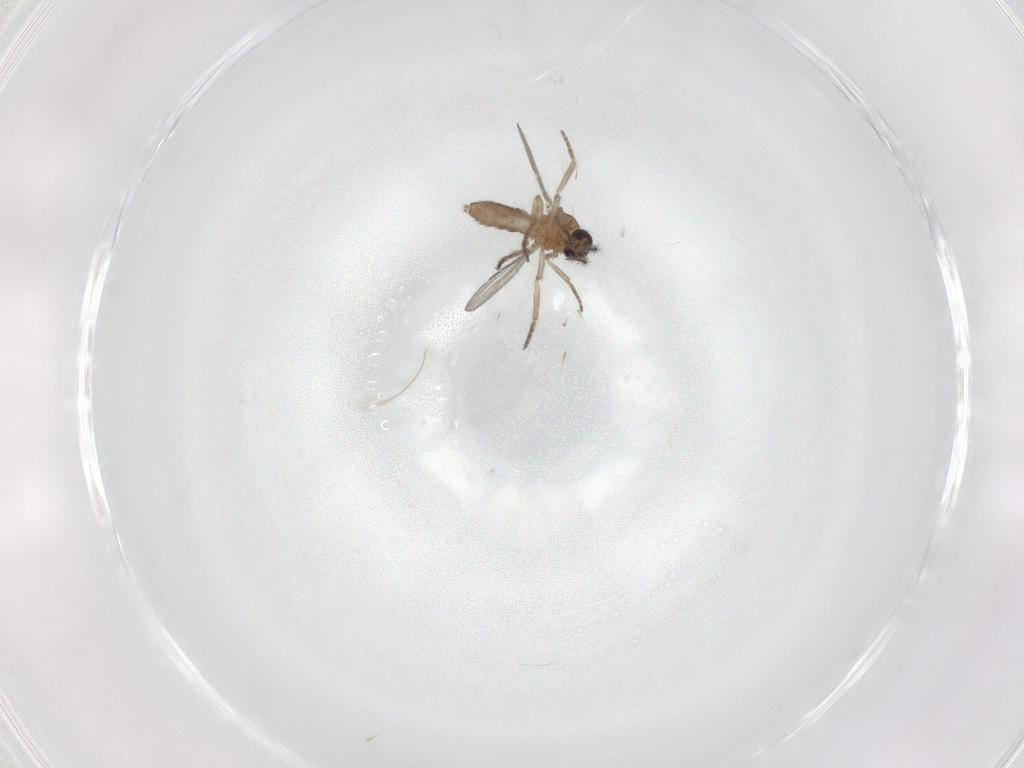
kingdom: Animalia
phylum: Arthropoda
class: Insecta
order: Diptera
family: Phoridae
